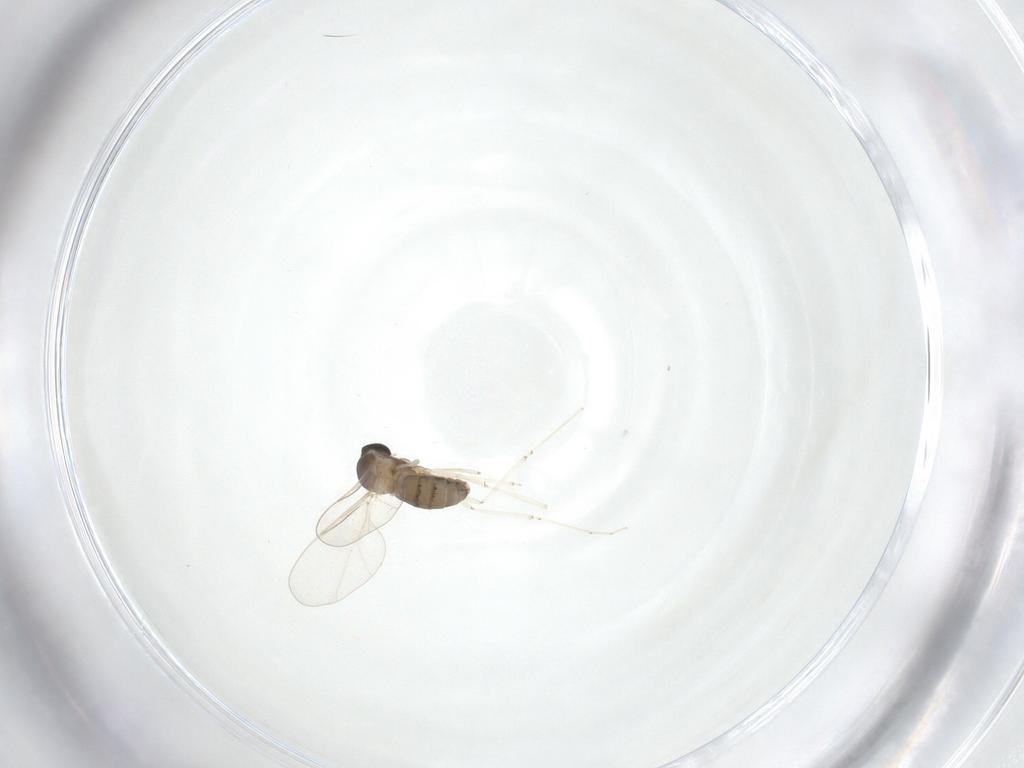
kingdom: Animalia
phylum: Arthropoda
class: Insecta
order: Diptera
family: Cecidomyiidae
